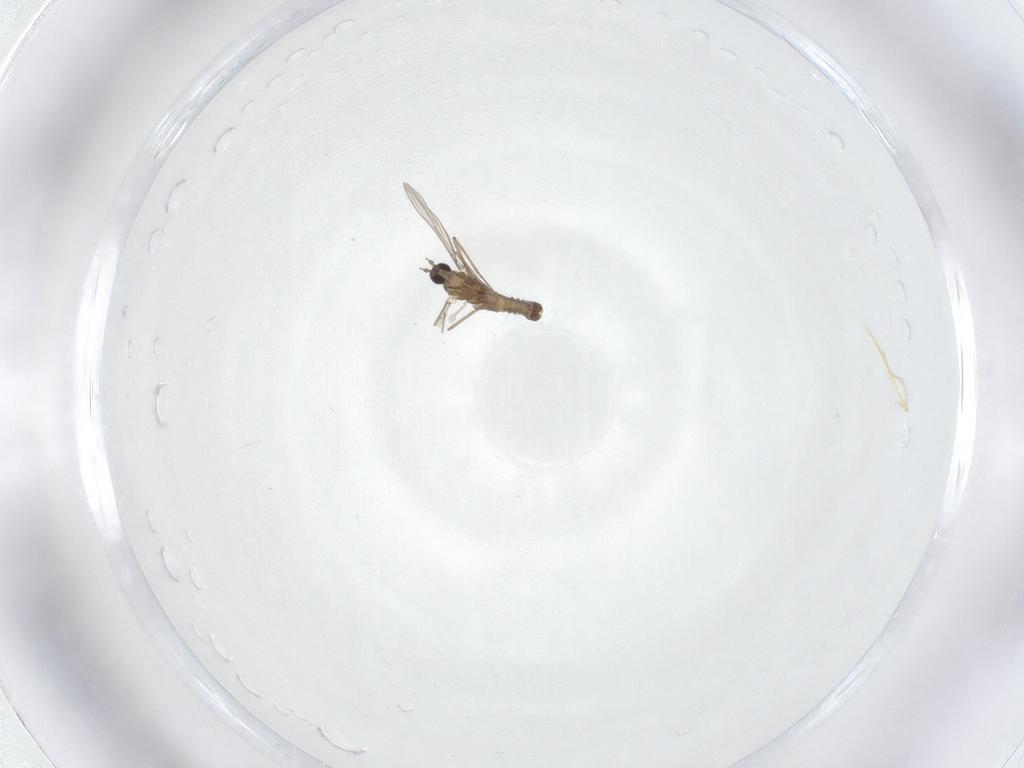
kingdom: Animalia
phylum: Arthropoda
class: Insecta
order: Diptera
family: Cecidomyiidae
